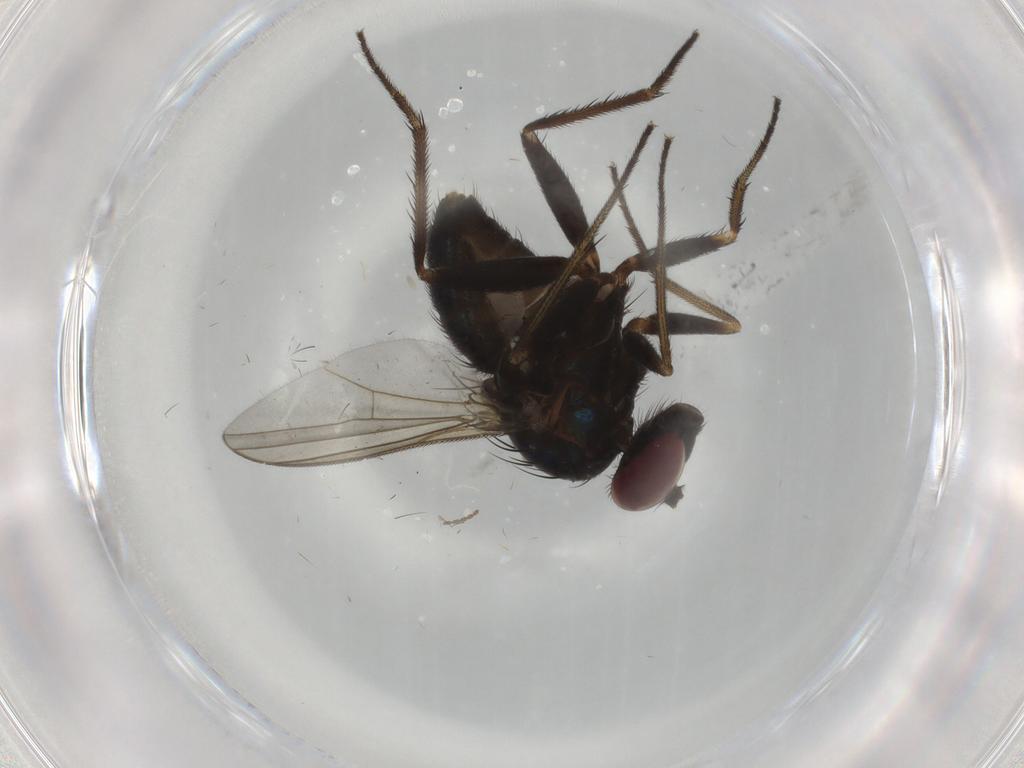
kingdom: Animalia
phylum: Arthropoda
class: Insecta
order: Diptera
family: Dolichopodidae
